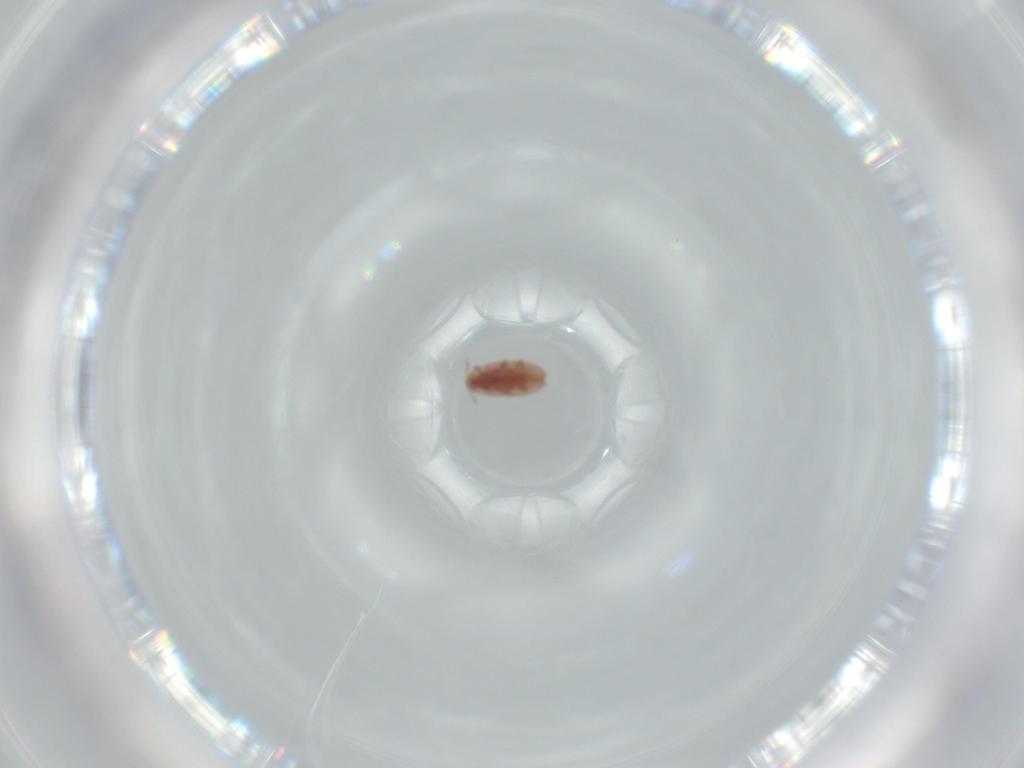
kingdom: Animalia
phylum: Arthropoda
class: Insecta
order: Hemiptera
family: Pseudococcidae
